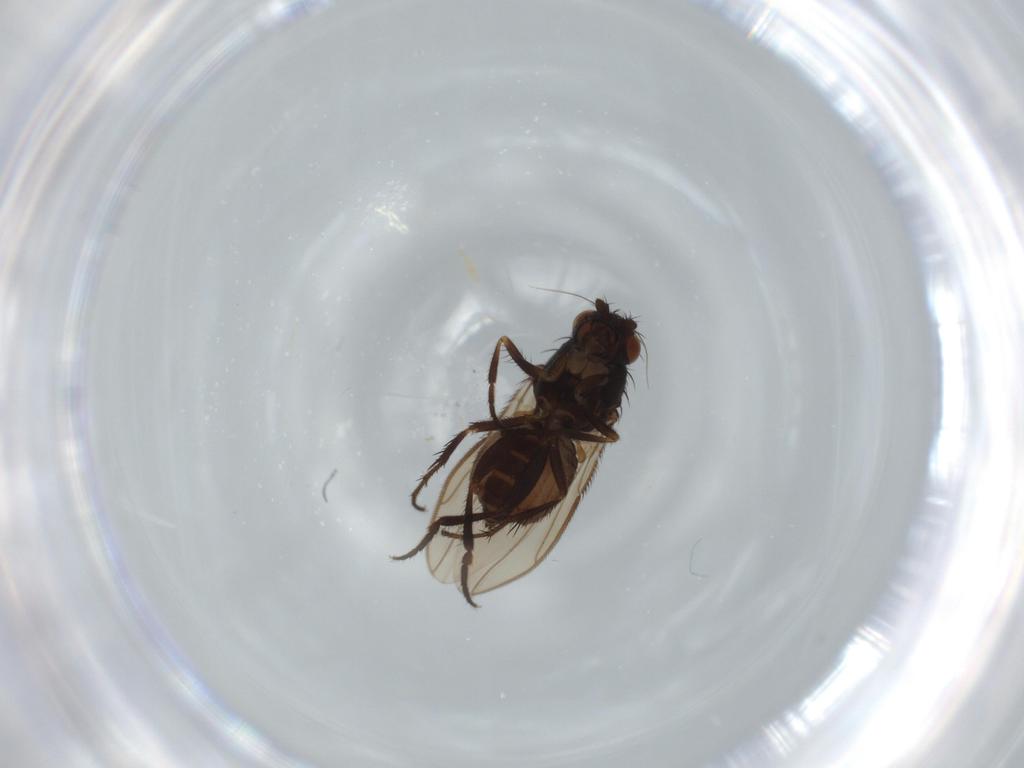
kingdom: Animalia
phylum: Arthropoda
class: Insecta
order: Diptera
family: Sphaeroceridae
